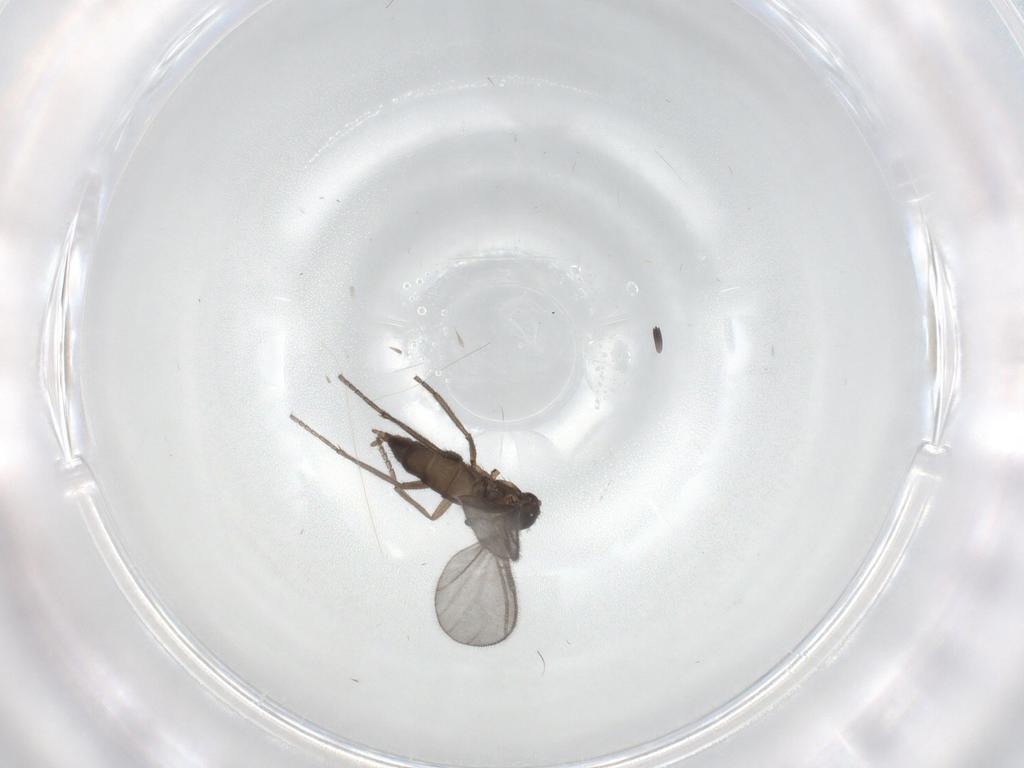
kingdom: Animalia
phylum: Arthropoda
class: Insecta
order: Diptera
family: Sciaridae
